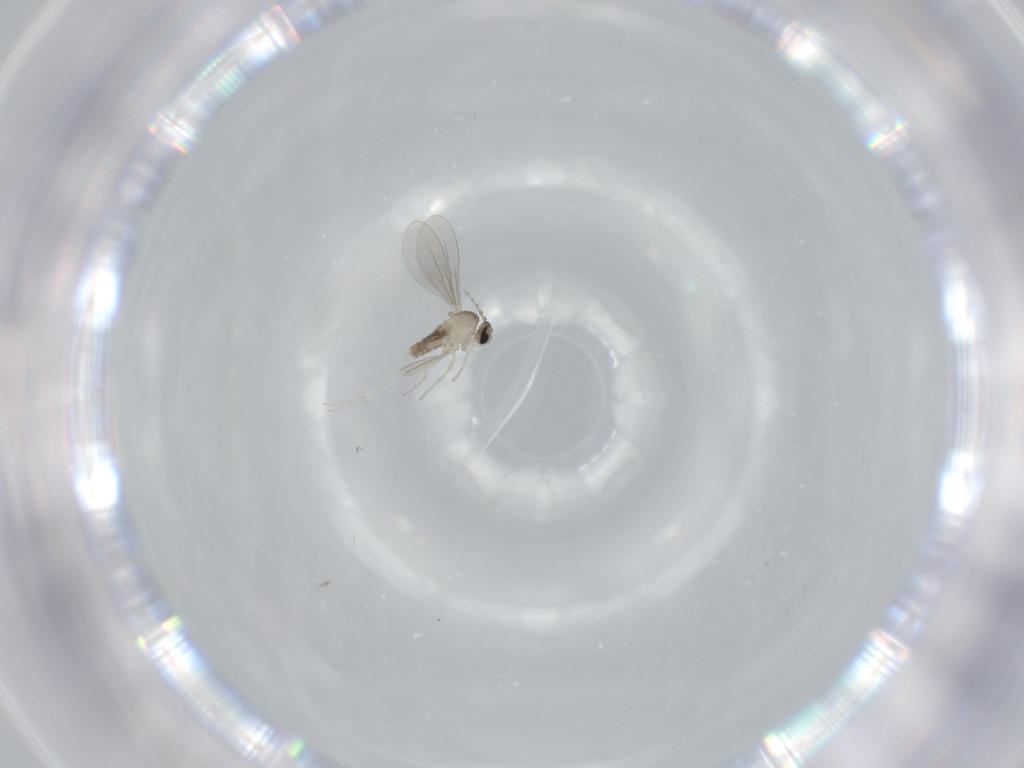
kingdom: Animalia
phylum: Arthropoda
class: Insecta
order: Diptera
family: Cecidomyiidae
